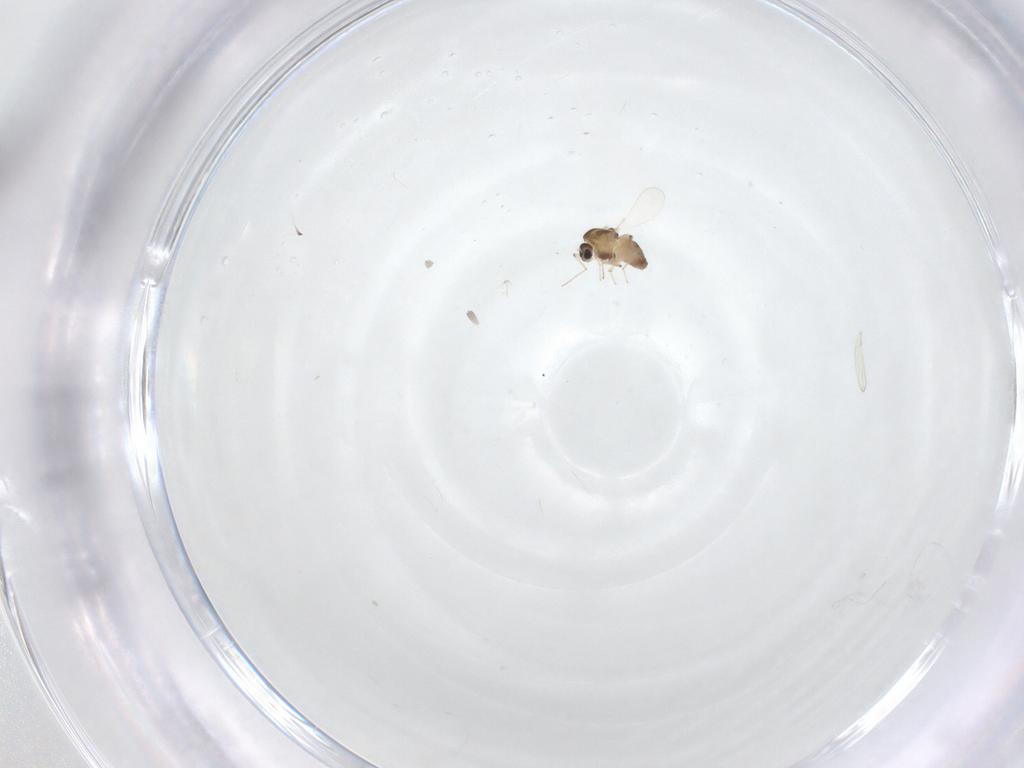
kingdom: Animalia
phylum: Arthropoda
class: Insecta
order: Diptera
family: Chironomidae
